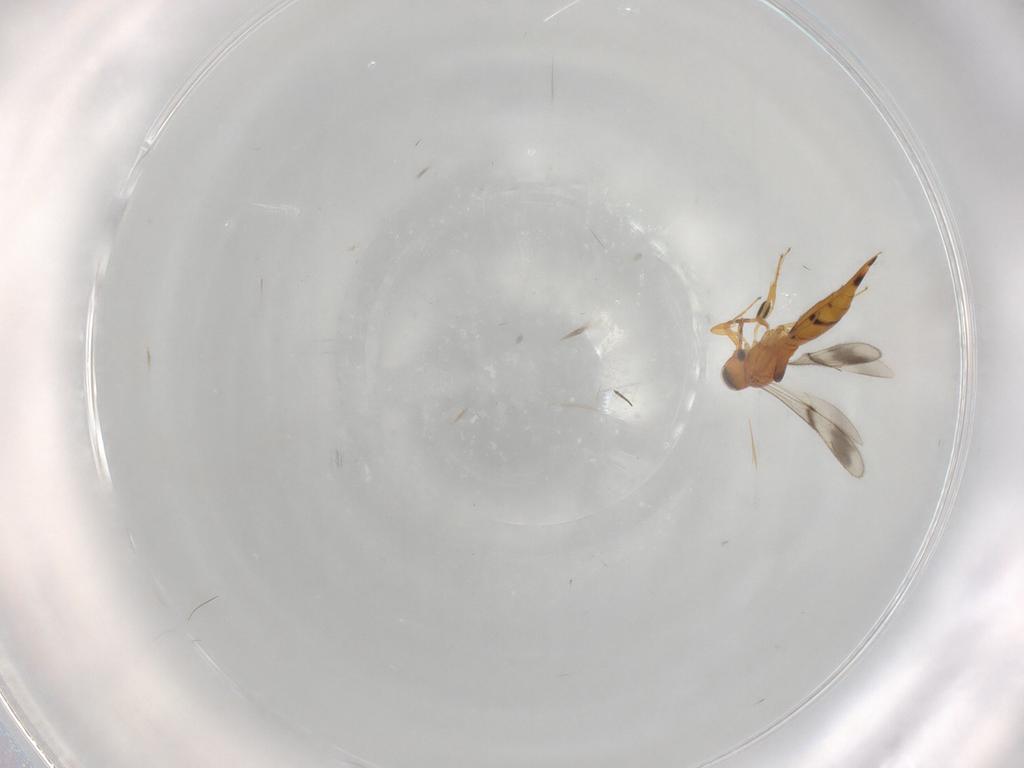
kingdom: Animalia
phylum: Arthropoda
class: Insecta
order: Hymenoptera
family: Scelionidae
